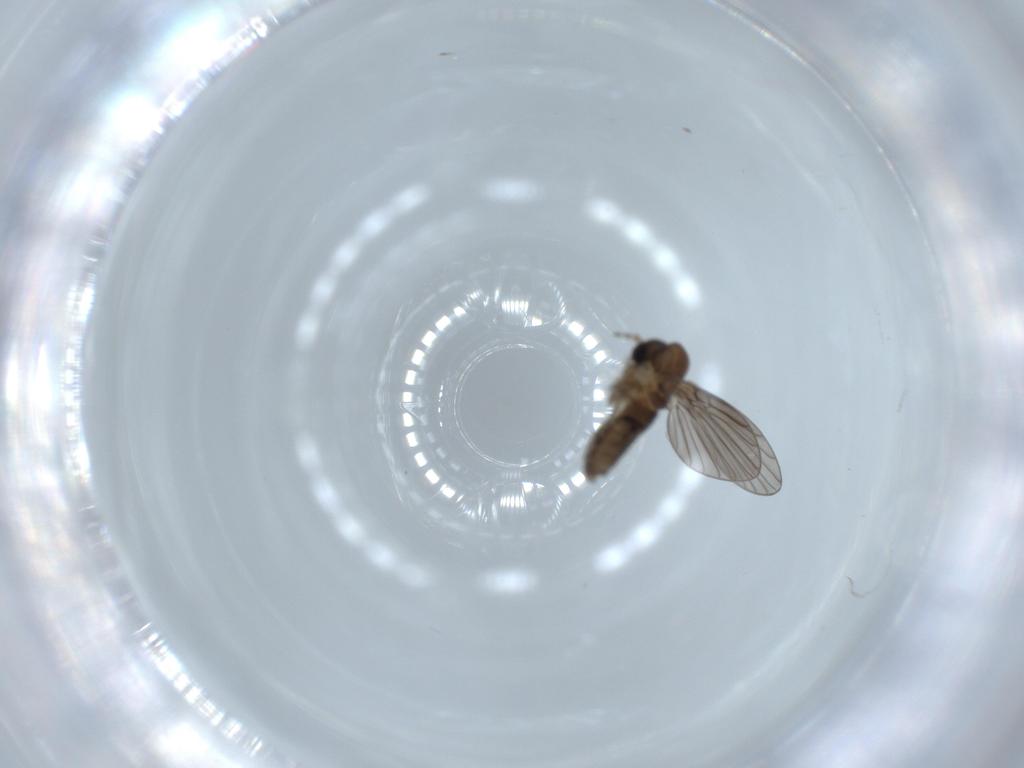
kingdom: Animalia
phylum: Arthropoda
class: Insecta
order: Diptera
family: Psychodidae
